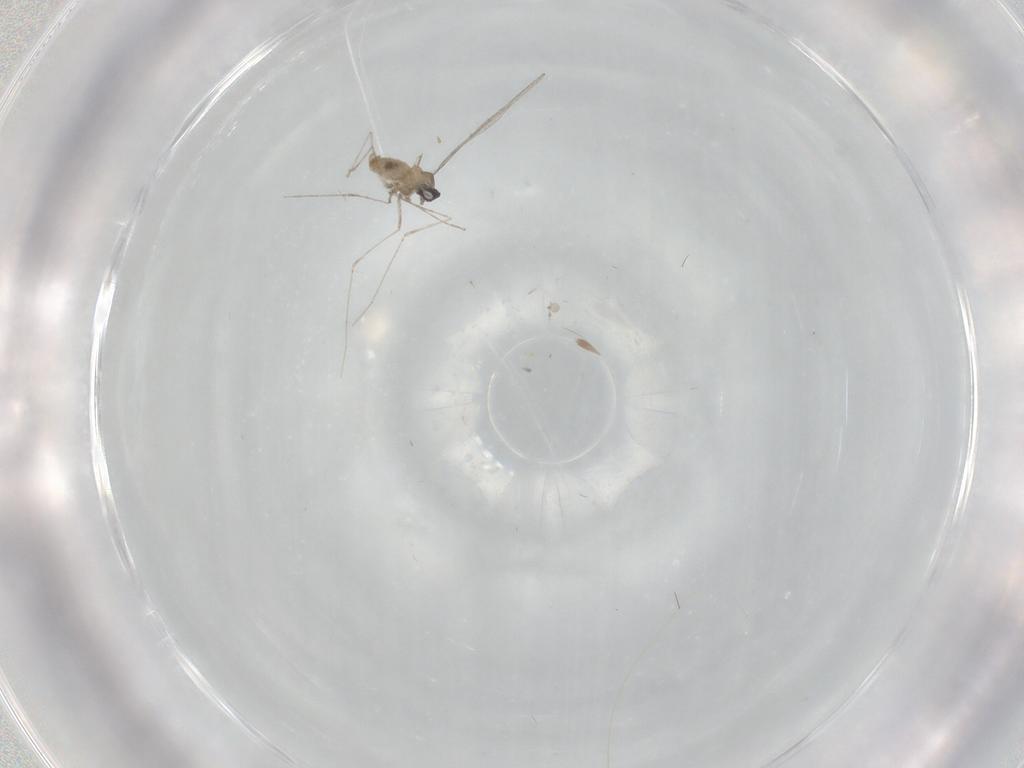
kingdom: Animalia
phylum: Arthropoda
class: Insecta
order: Diptera
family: Cecidomyiidae
